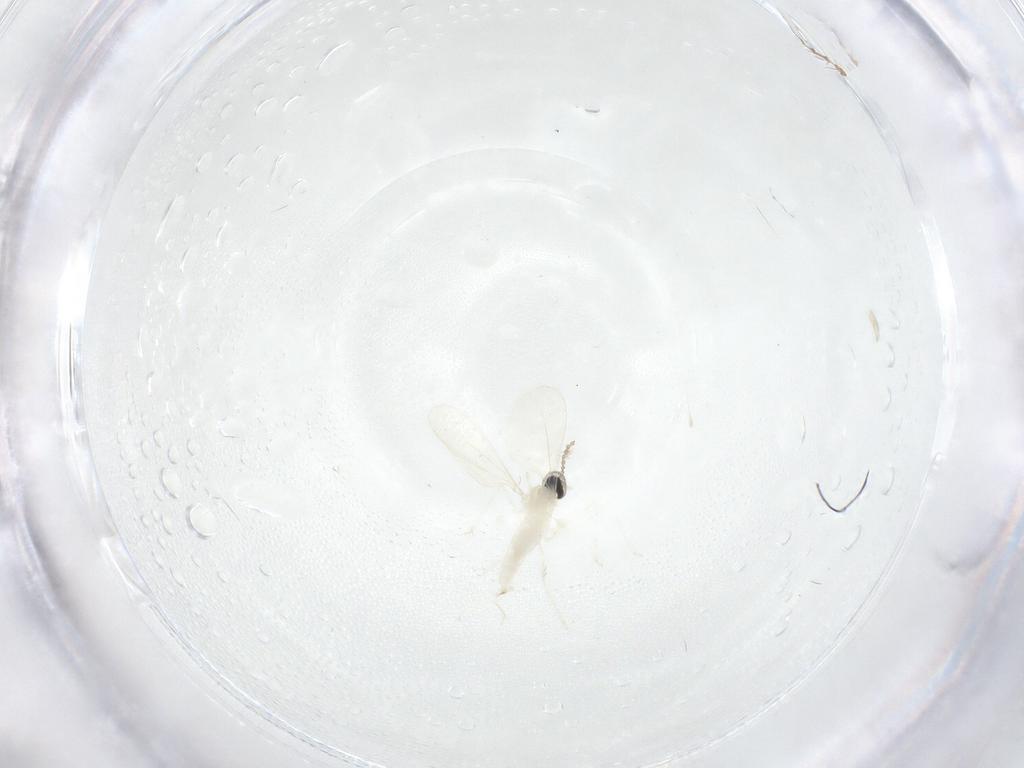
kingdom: Animalia
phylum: Arthropoda
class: Insecta
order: Diptera
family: Cecidomyiidae
